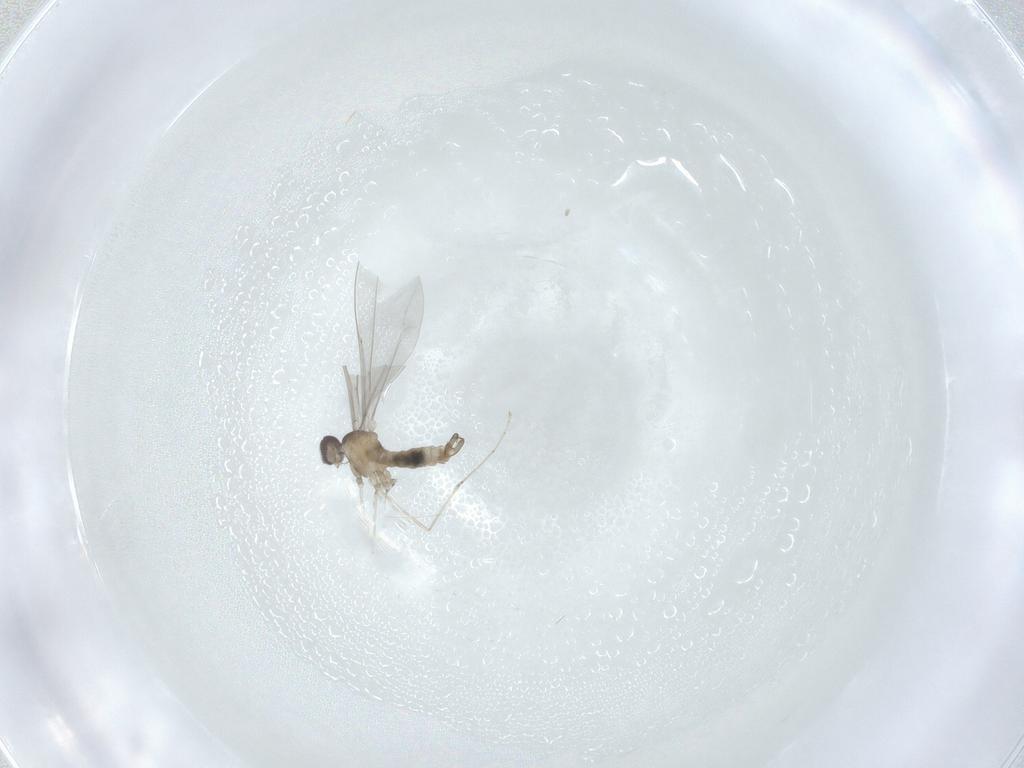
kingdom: Animalia
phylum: Arthropoda
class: Insecta
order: Diptera
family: Cecidomyiidae
